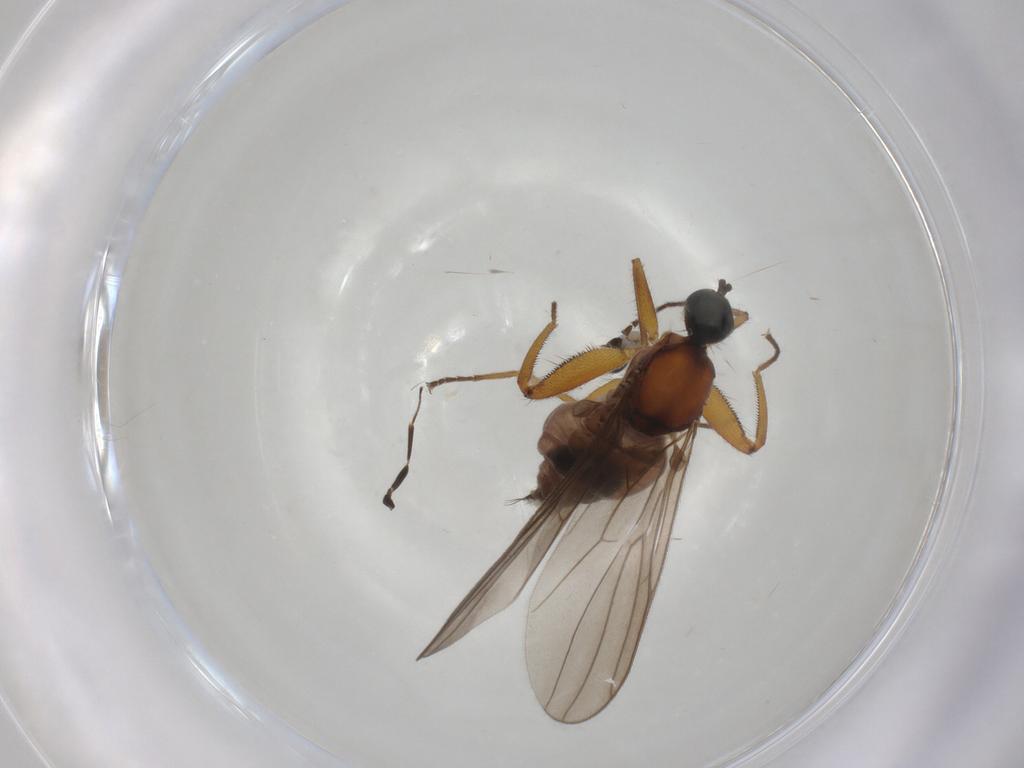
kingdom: Animalia
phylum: Arthropoda
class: Insecta
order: Diptera
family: Hybotidae
